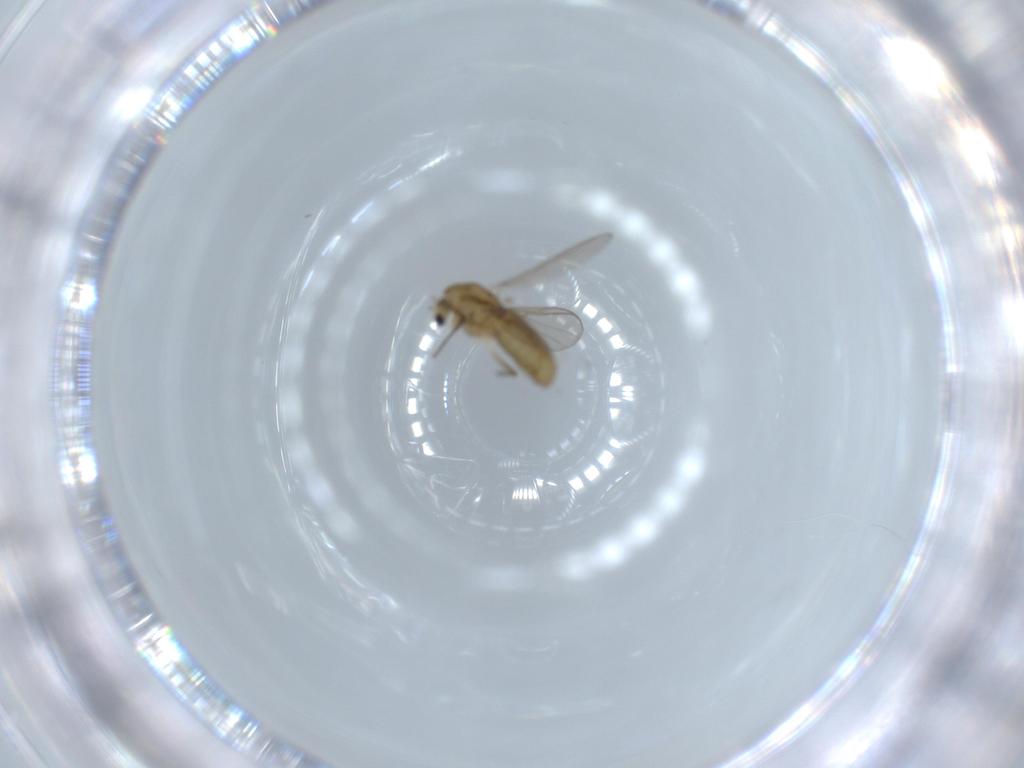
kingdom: Animalia
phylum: Arthropoda
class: Insecta
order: Diptera
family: Chironomidae
